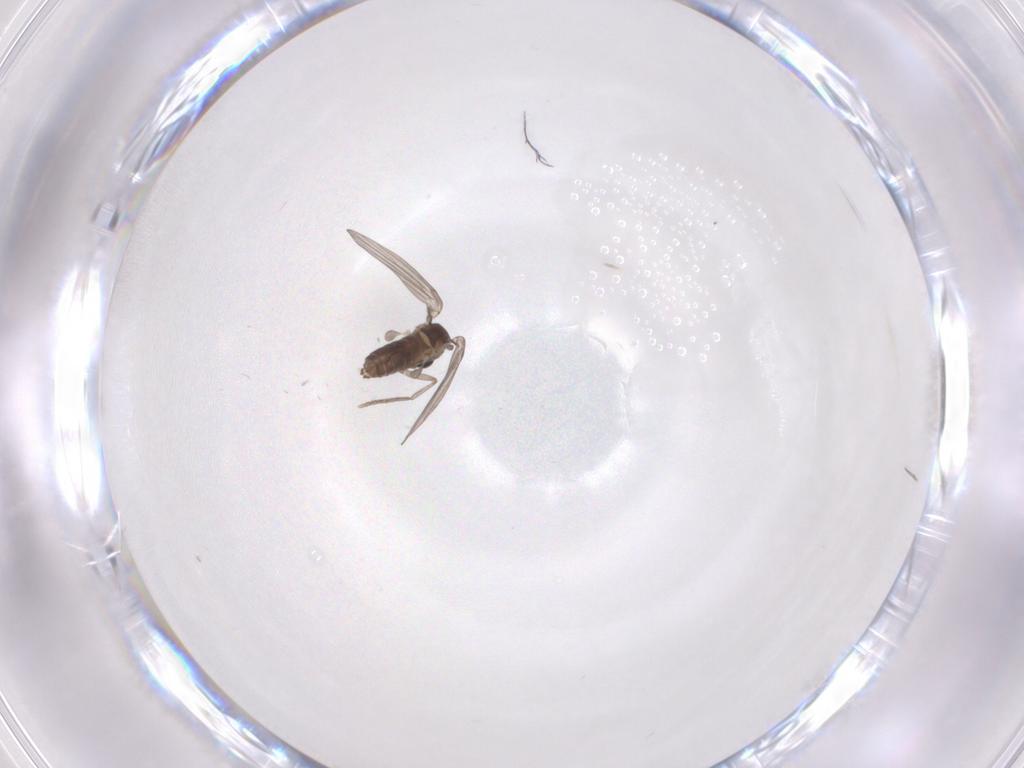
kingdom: Animalia
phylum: Arthropoda
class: Insecta
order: Diptera
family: Sphaeroceridae
